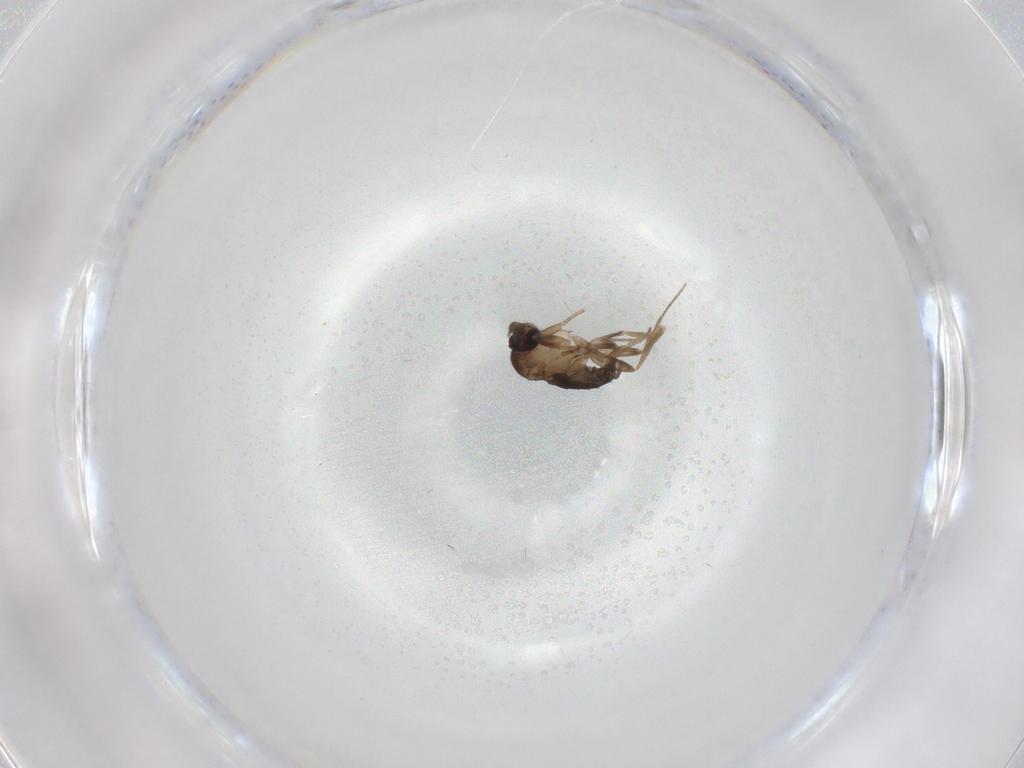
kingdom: Animalia
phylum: Arthropoda
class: Insecta
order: Diptera
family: Phoridae
